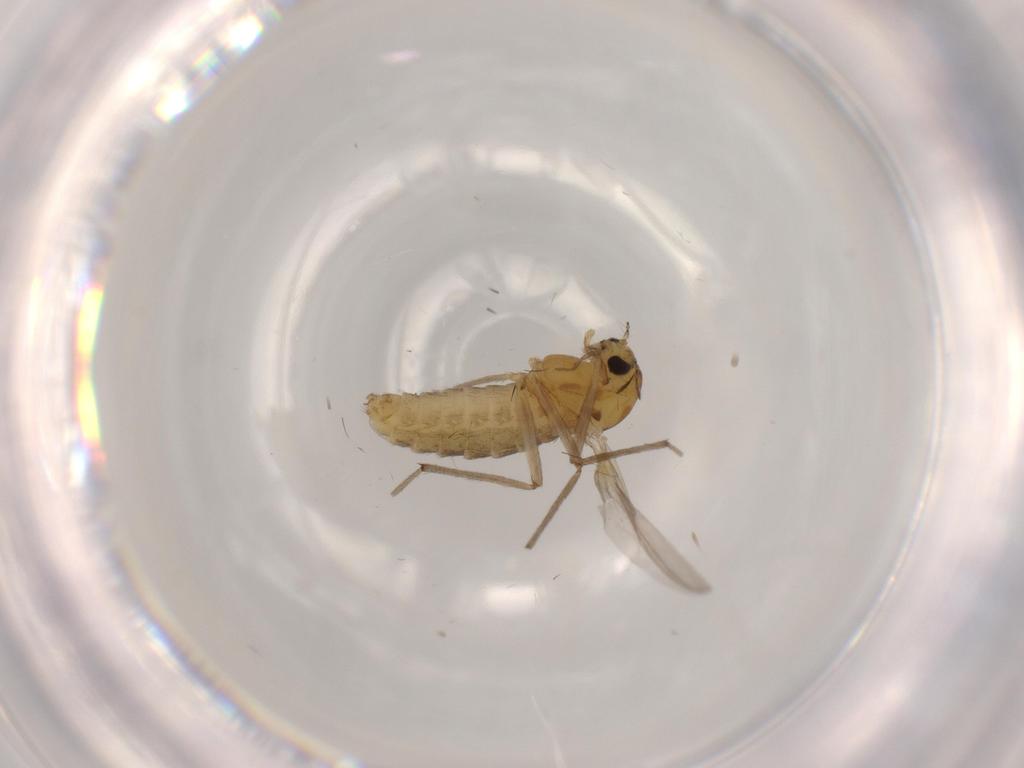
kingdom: Animalia
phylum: Arthropoda
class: Insecta
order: Diptera
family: Chironomidae
